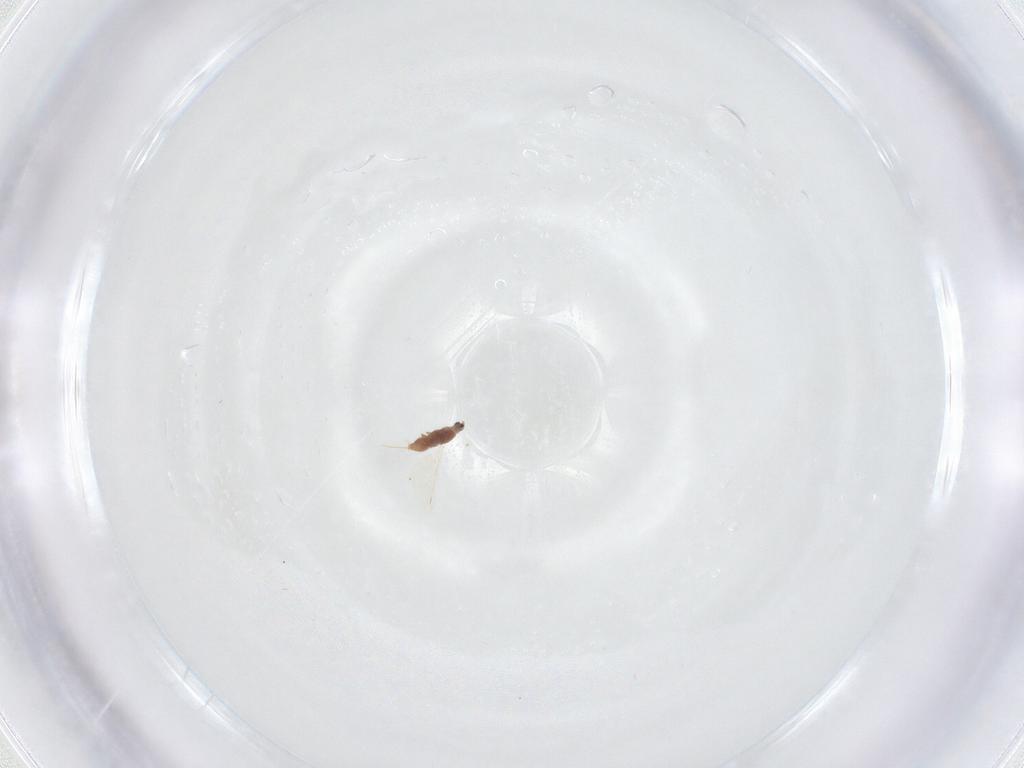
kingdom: Animalia
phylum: Arthropoda
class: Insecta
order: Hemiptera
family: Diaspididae
